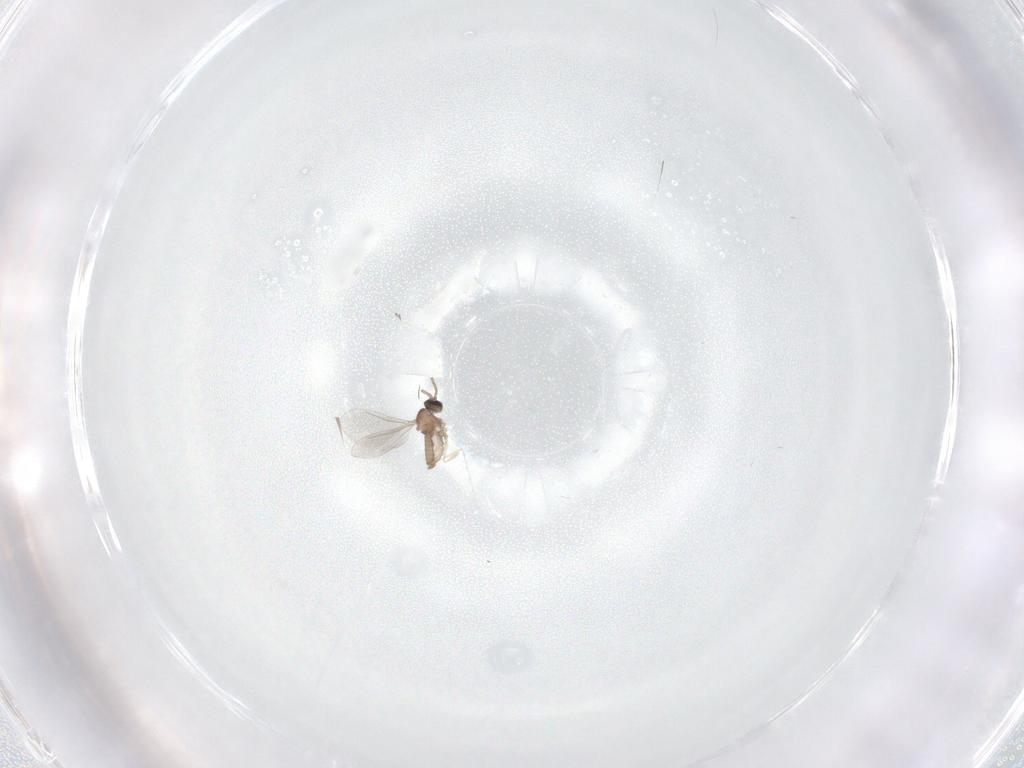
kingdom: Animalia
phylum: Arthropoda
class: Insecta
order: Diptera
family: Cecidomyiidae
